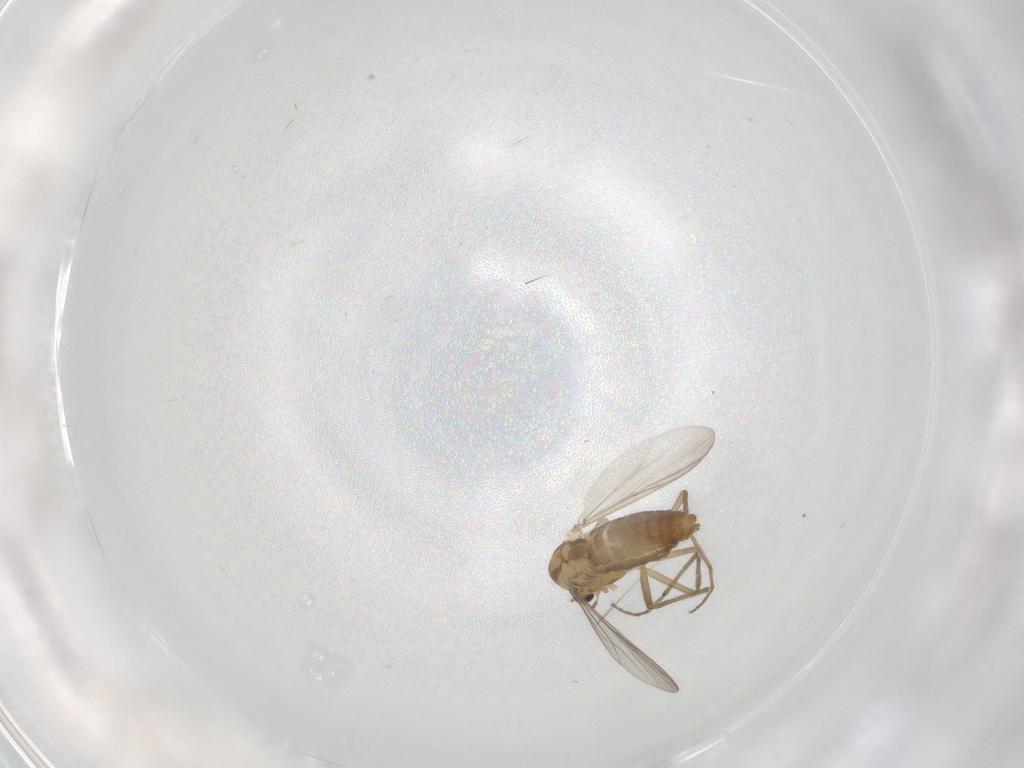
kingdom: Animalia
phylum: Arthropoda
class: Insecta
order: Diptera
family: Chironomidae
